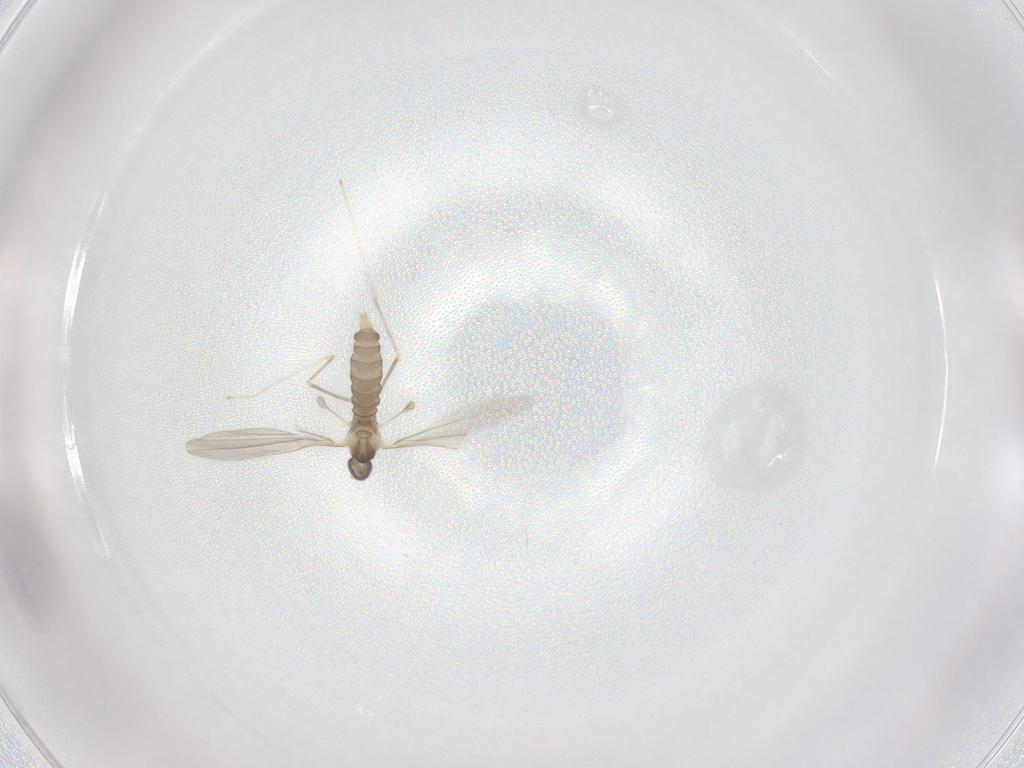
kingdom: Animalia
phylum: Arthropoda
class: Insecta
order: Diptera
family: Cecidomyiidae
